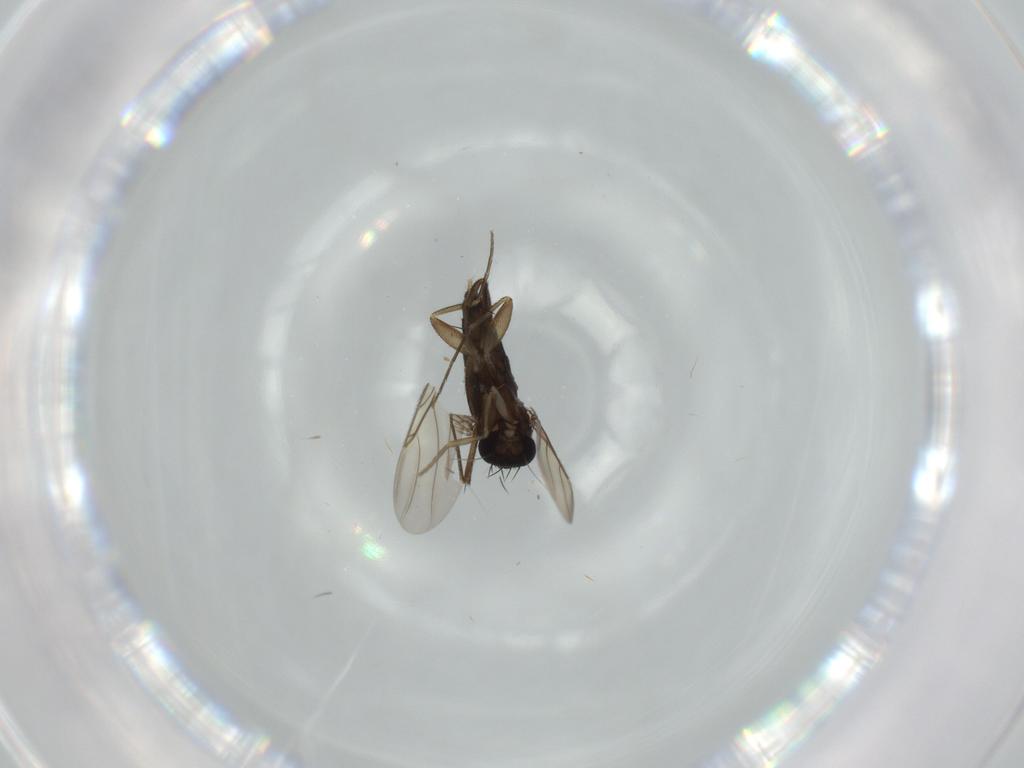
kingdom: Animalia
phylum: Arthropoda
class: Insecta
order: Diptera
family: Phoridae
